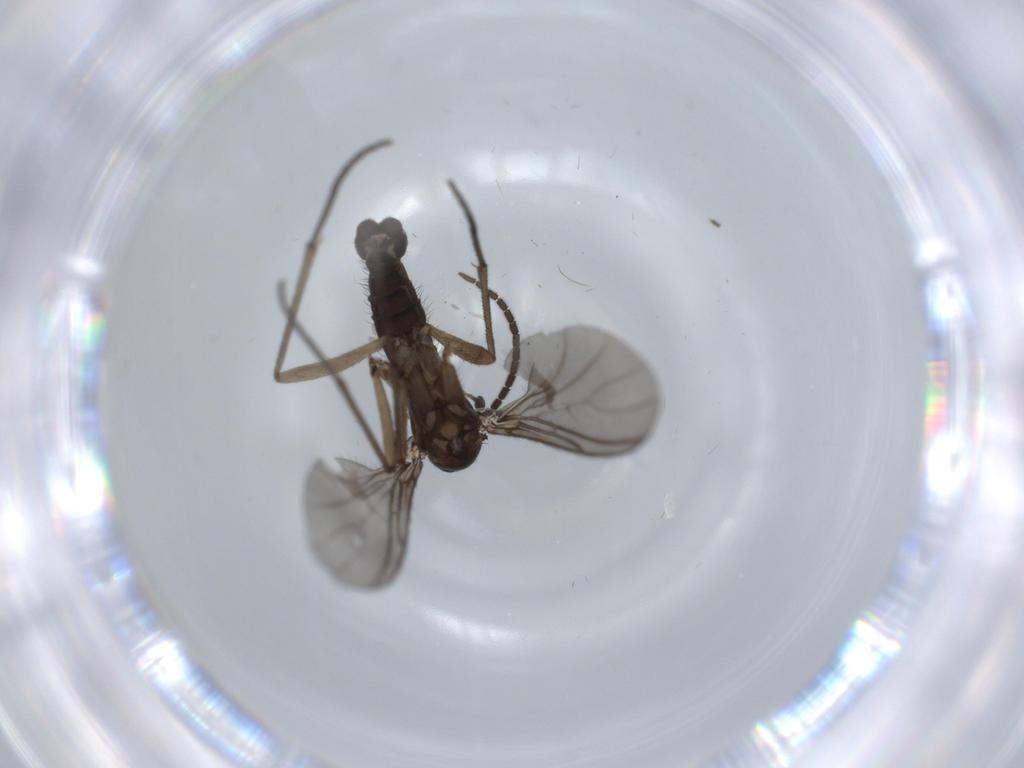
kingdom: Animalia
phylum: Arthropoda
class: Insecta
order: Diptera
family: Sciaridae
